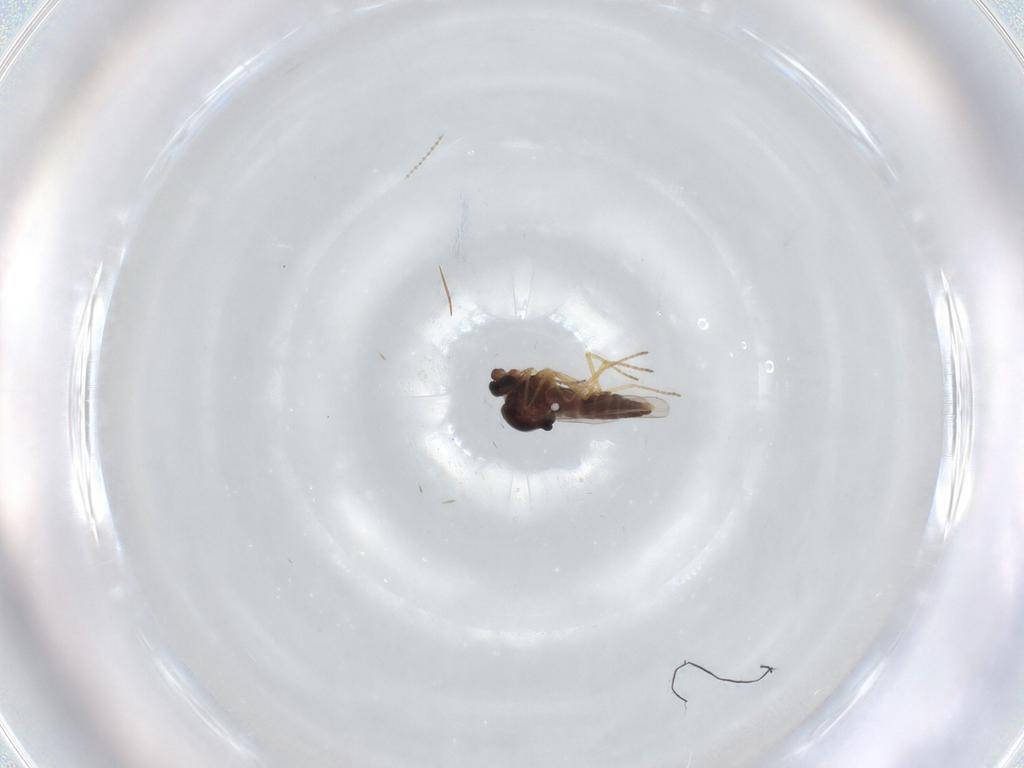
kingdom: Animalia
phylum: Arthropoda
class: Insecta
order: Diptera
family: Ceratopogonidae
